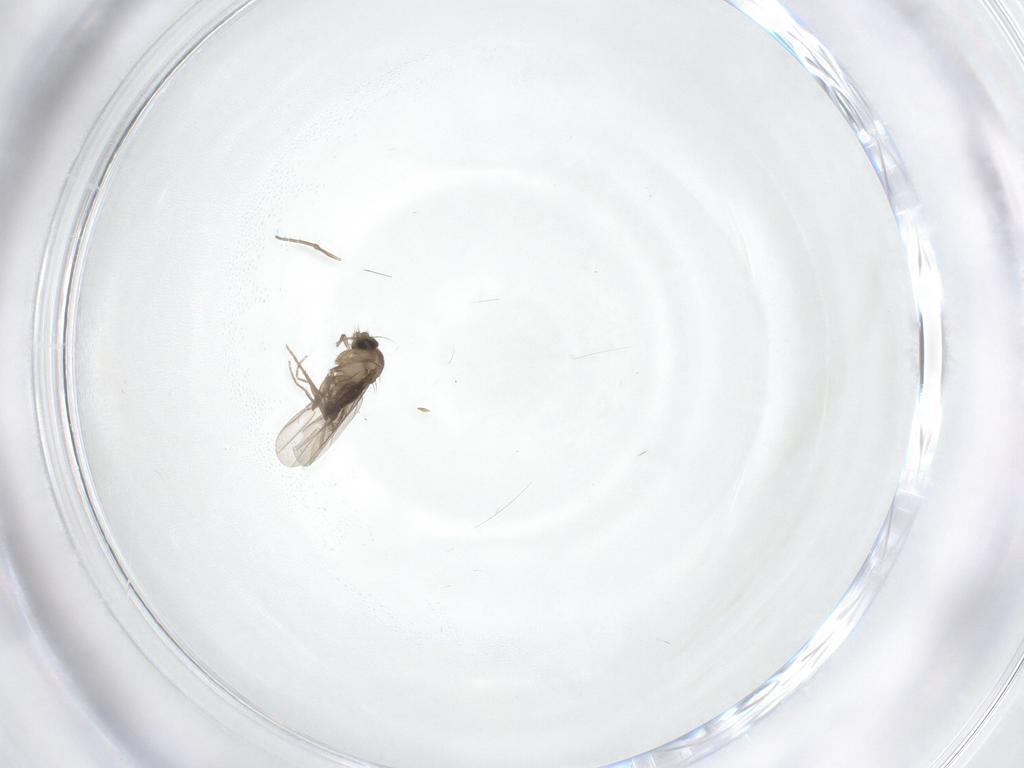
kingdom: Animalia
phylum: Arthropoda
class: Insecta
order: Diptera
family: Phoridae
